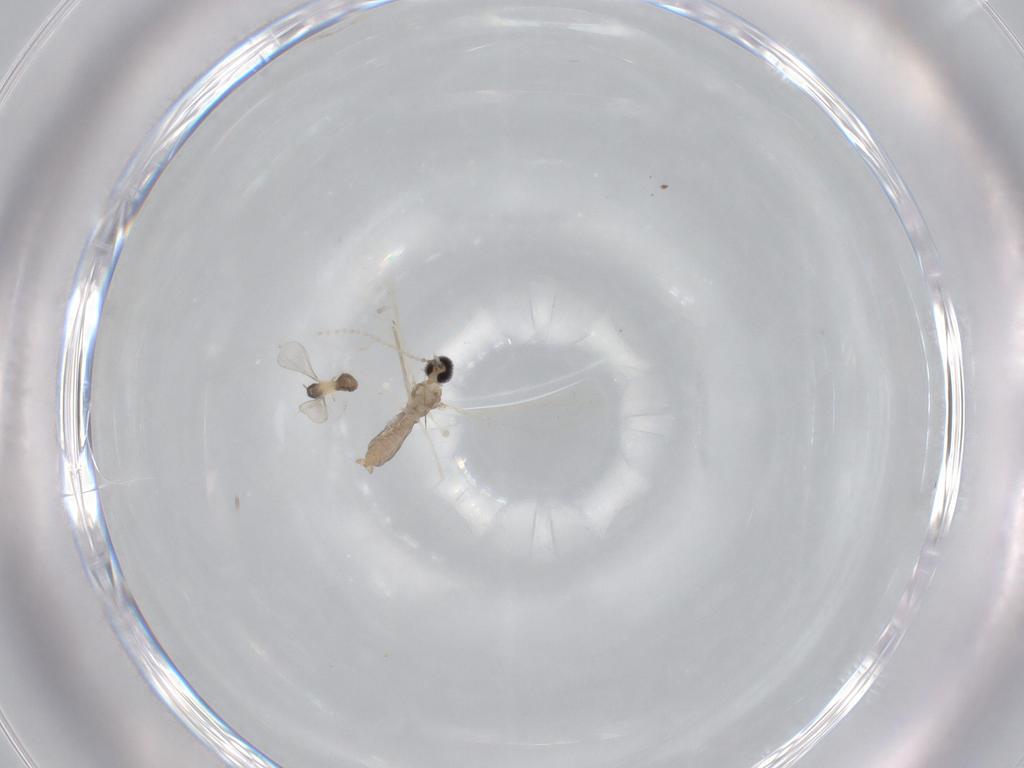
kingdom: Animalia
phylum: Arthropoda
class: Insecta
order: Diptera
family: Cecidomyiidae
